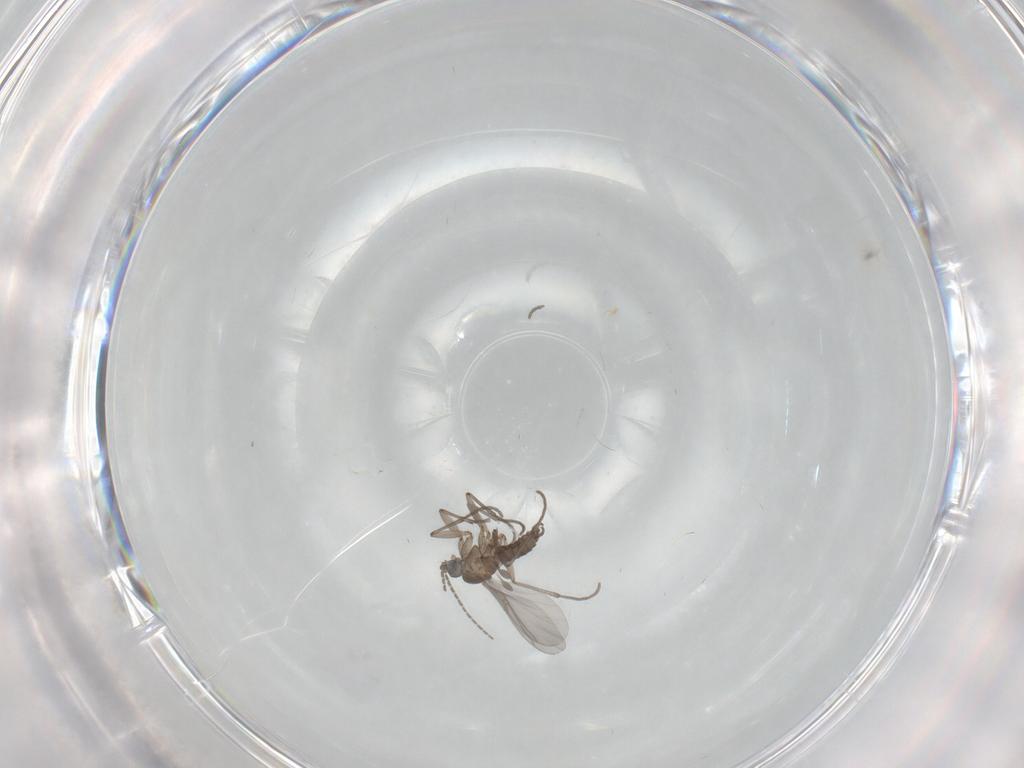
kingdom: Animalia
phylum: Arthropoda
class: Insecta
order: Diptera
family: Sciaridae
